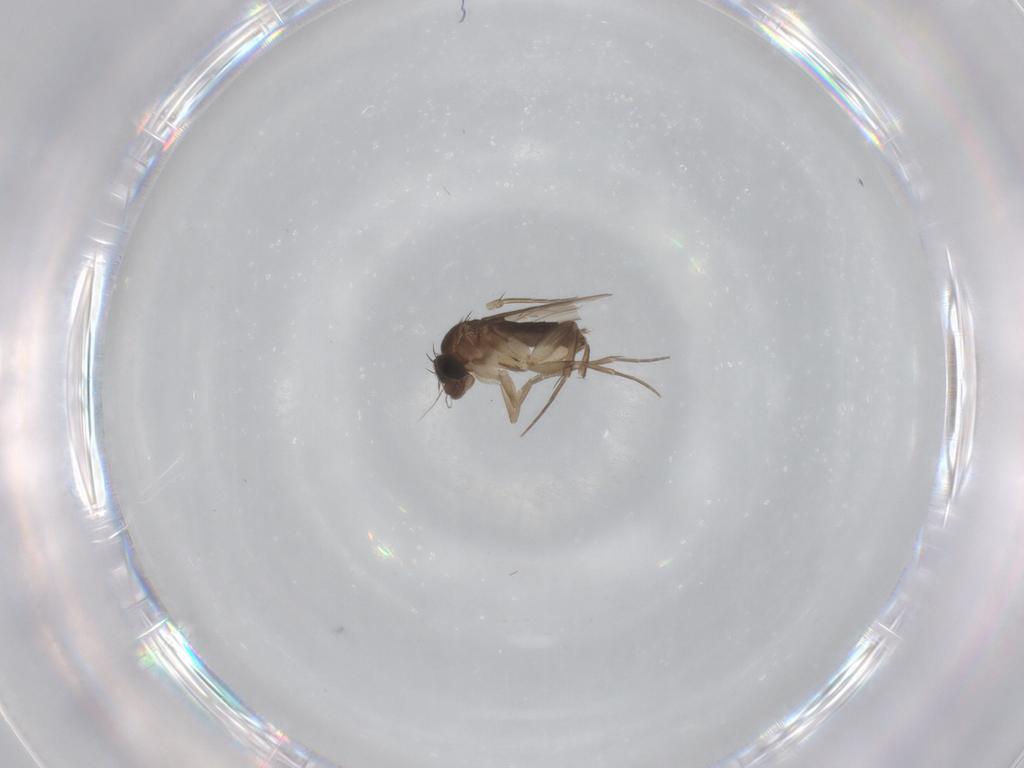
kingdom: Animalia
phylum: Arthropoda
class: Insecta
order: Diptera
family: Phoridae
